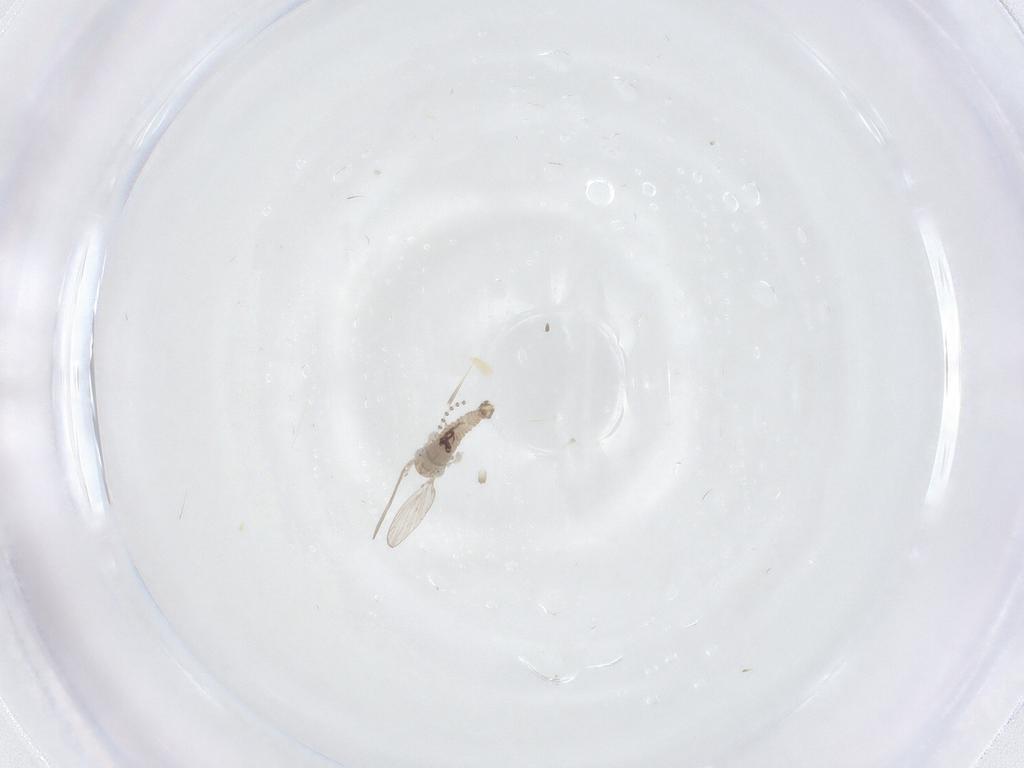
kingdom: Animalia
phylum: Arthropoda
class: Insecta
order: Diptera
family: Psychodidae
